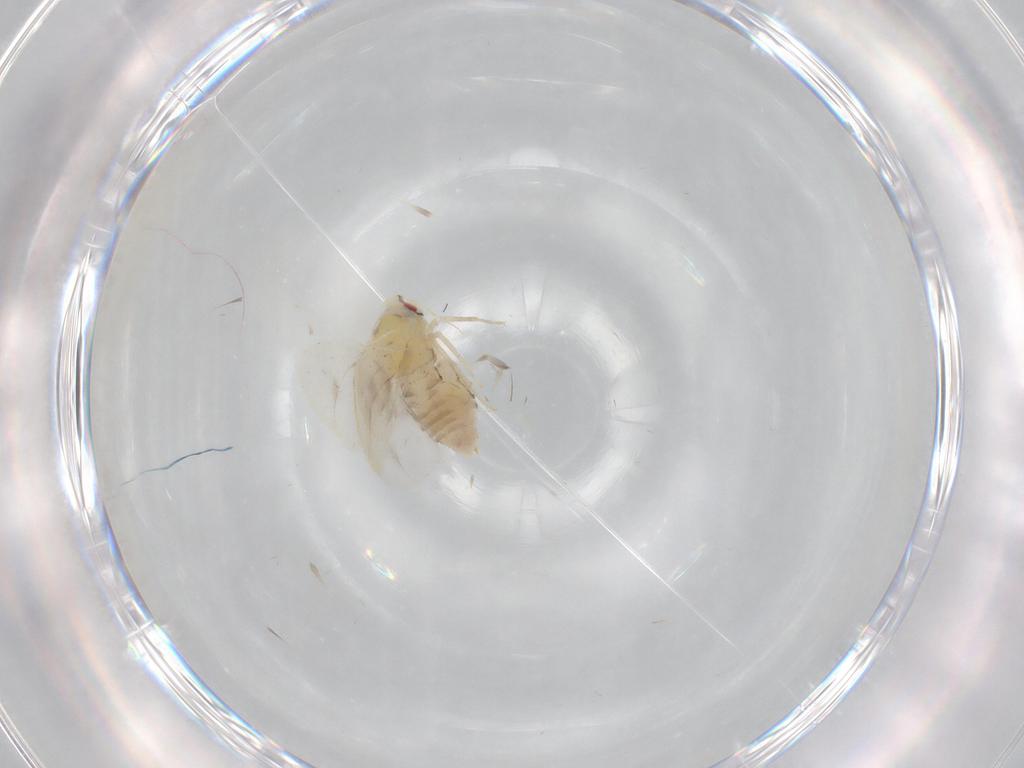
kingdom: Animalia
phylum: Arthropoda
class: Insecta
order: Hemiptera
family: Aleyrodidae
